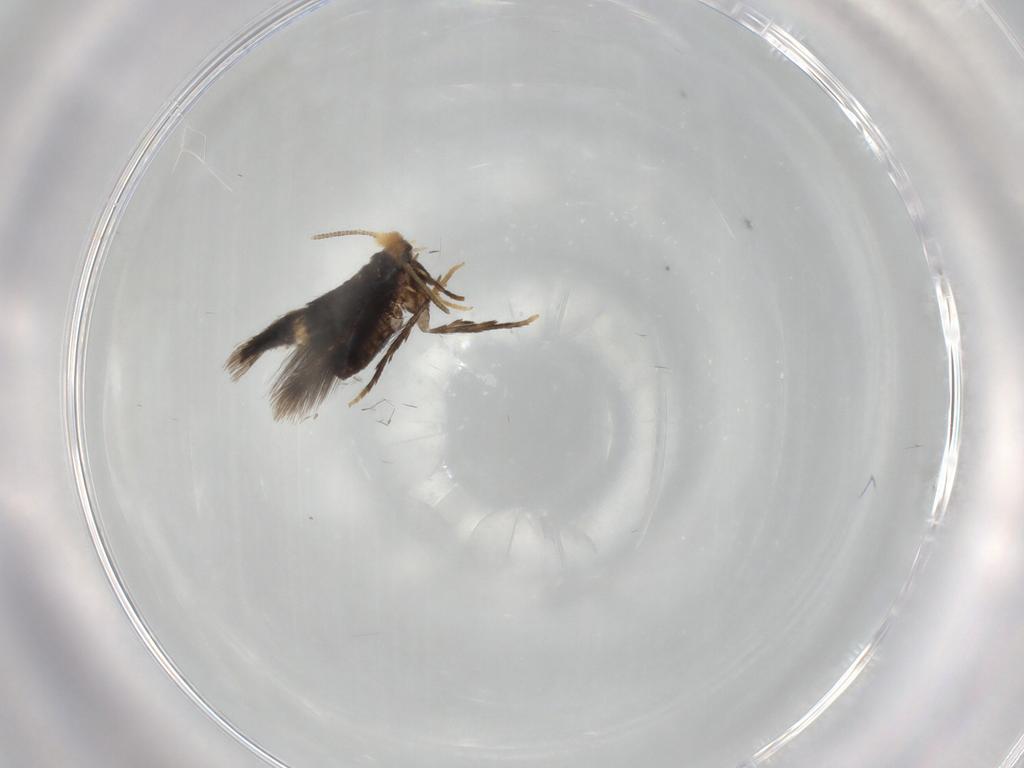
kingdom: Animalia
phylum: Arthropoda
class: Insecta
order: Lepidoptera
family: Nepticulidae
